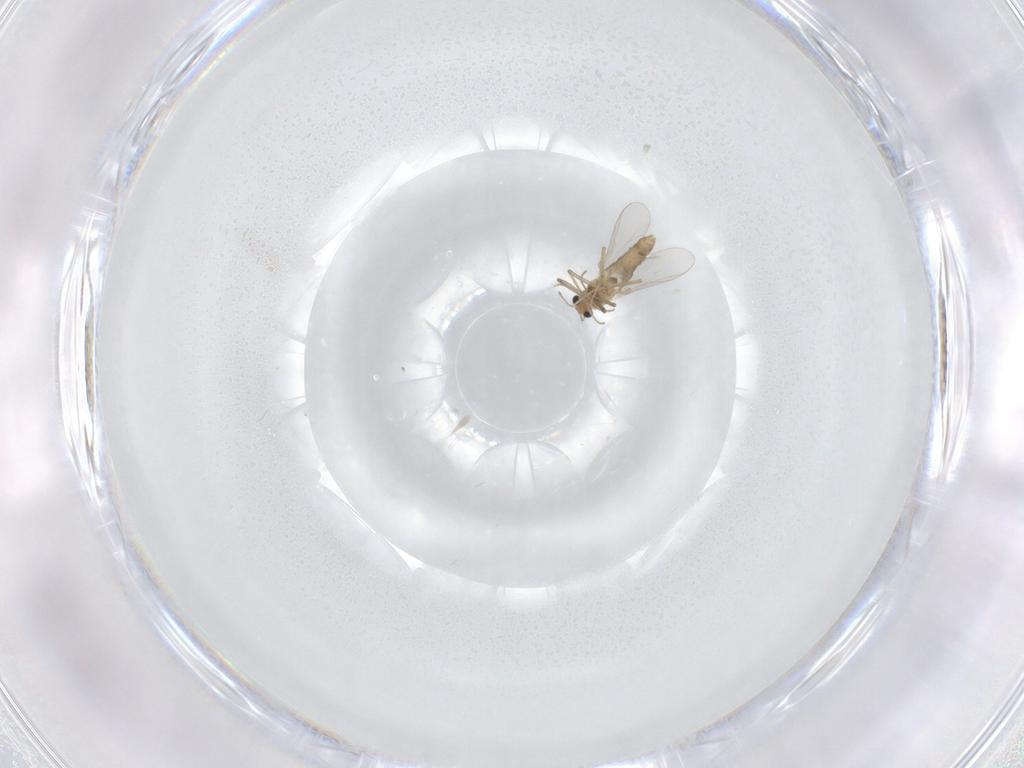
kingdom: Animalia
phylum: Arthropoda
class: Insecta
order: Diptera
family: Chironomidae
